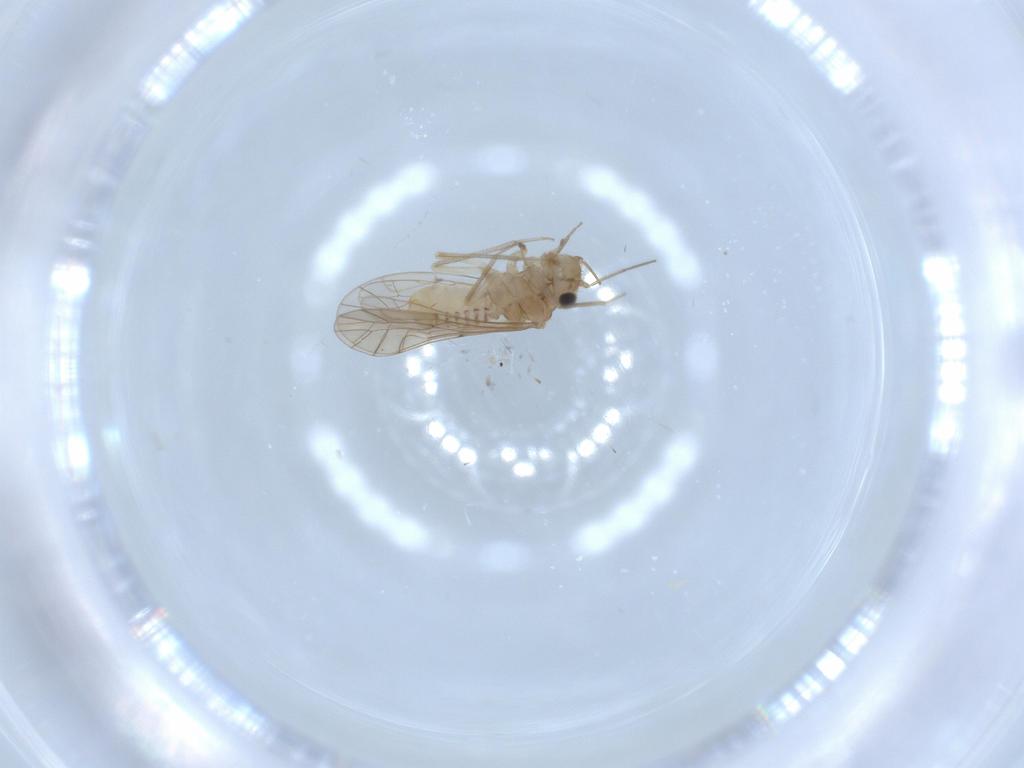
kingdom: Animalia
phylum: Arthropoda
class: Insecta
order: Psocodea
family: Lachesillidae
